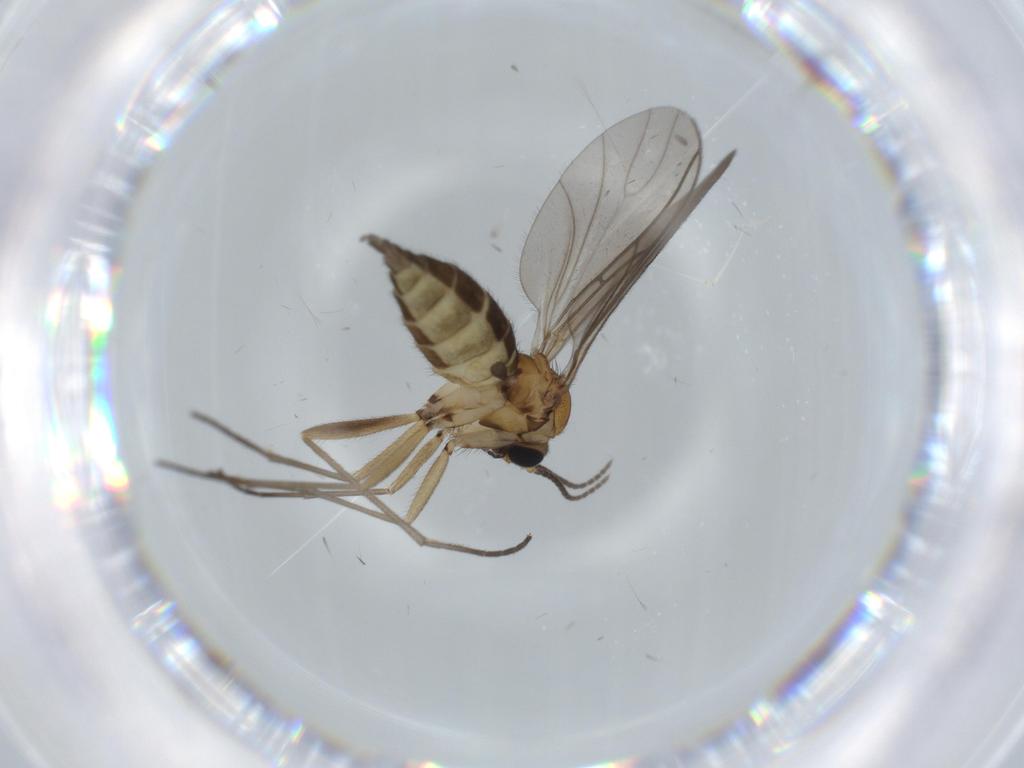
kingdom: Animalia
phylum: Arthropoda
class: Insecta
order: Diptera
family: Sciaridae
